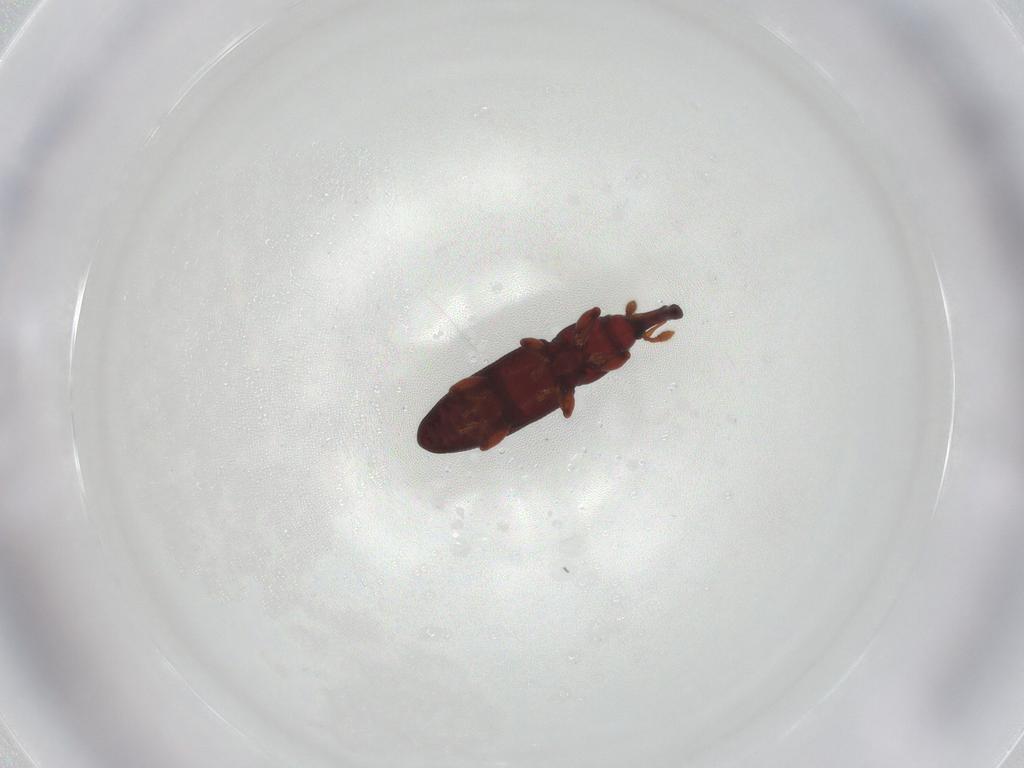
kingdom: Animalia
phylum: Arthropoda
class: Insecta
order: Coleoptera
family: Curculionidae
